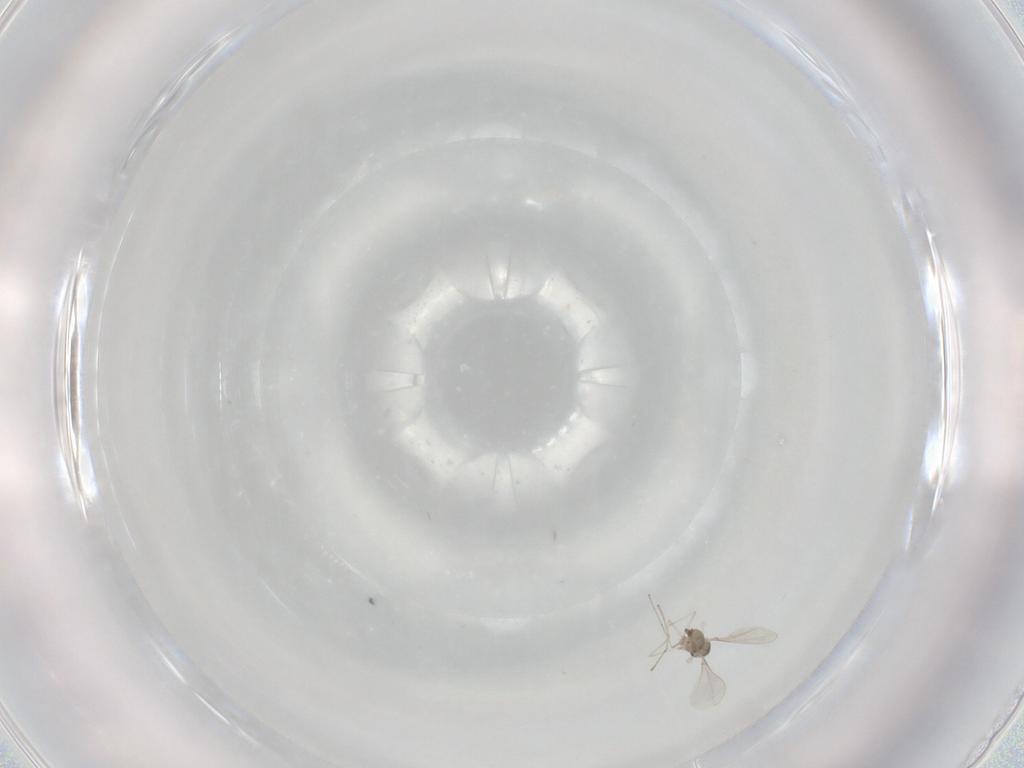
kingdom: Animalia
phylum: Arthropoda
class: Insecta
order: Diptera
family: Cecidomyiidae
